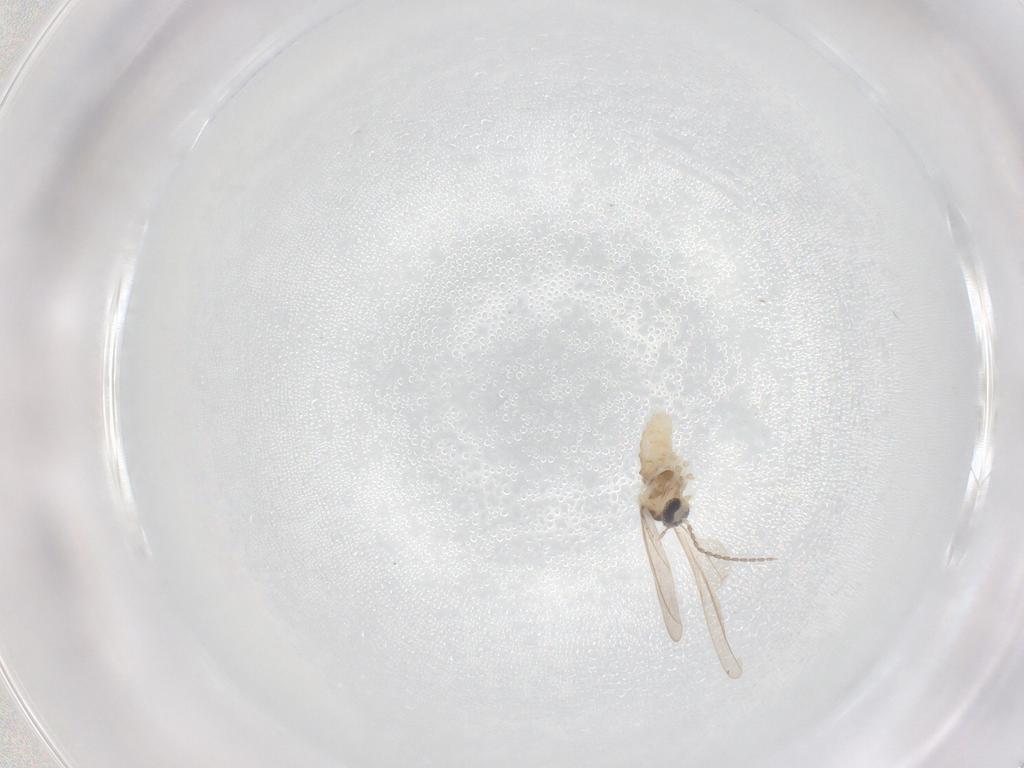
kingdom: Animalia
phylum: Arthropoda
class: Insecta
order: Diptera
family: Cecidomyiidae
